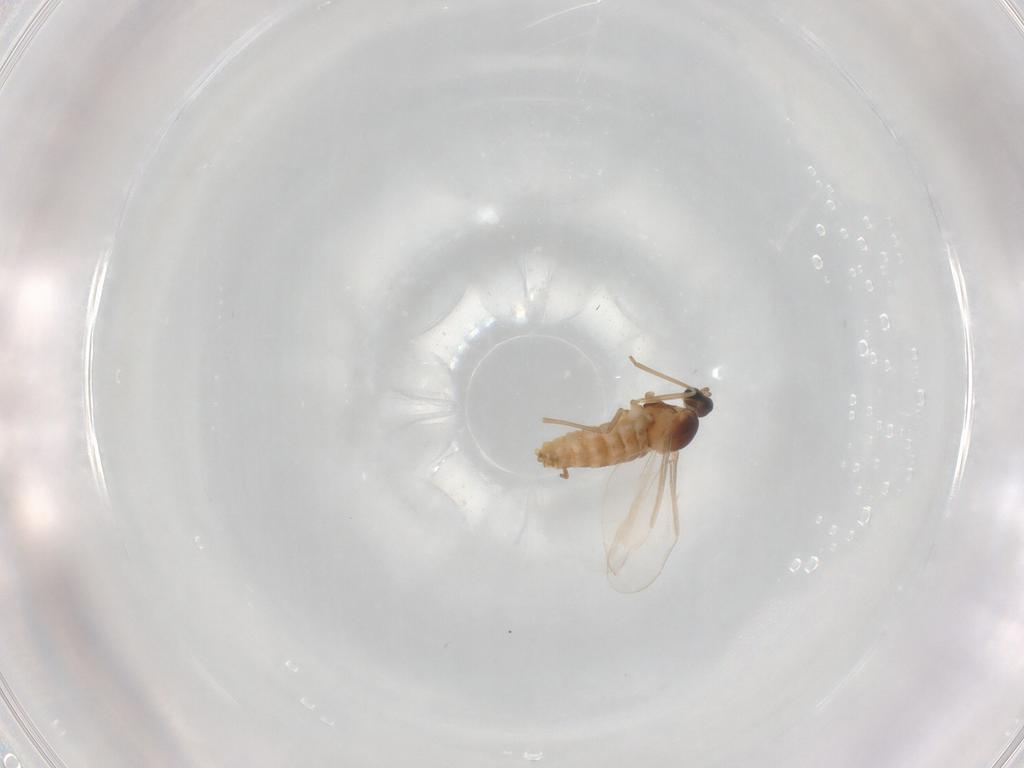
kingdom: Animalia
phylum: Arthropoda
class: Insecta
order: Diptera
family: Cecidomyiidae
